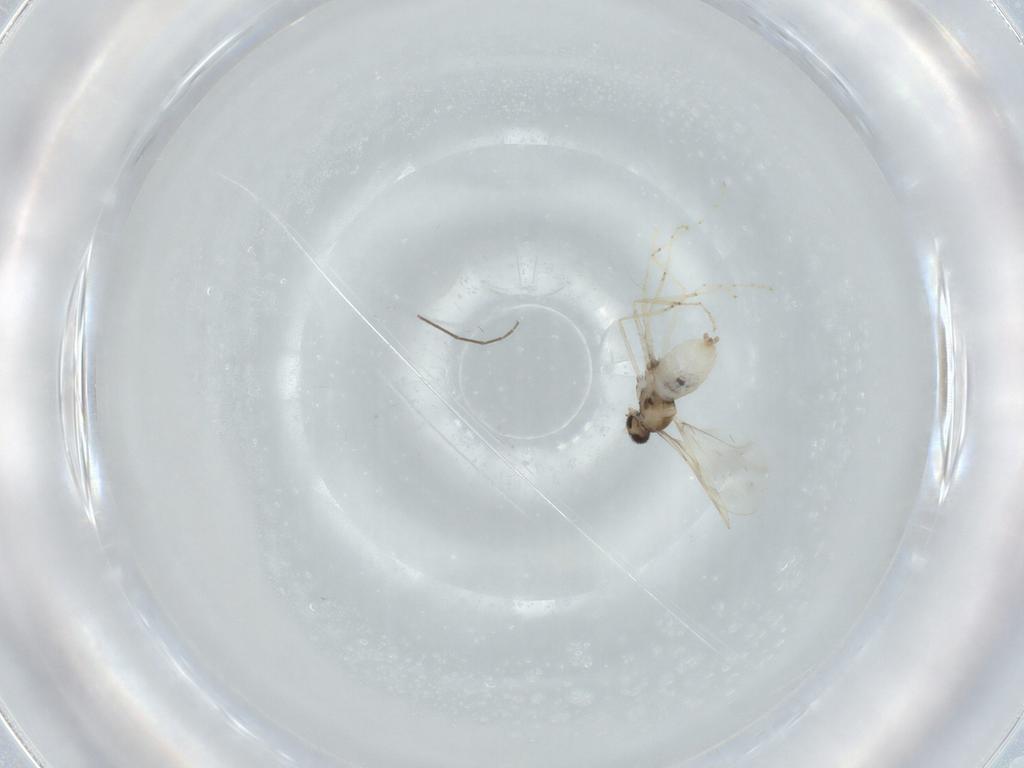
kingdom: Animalia
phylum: Arthropoda
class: Insecta
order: Diptera
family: Cecidomyiidae
